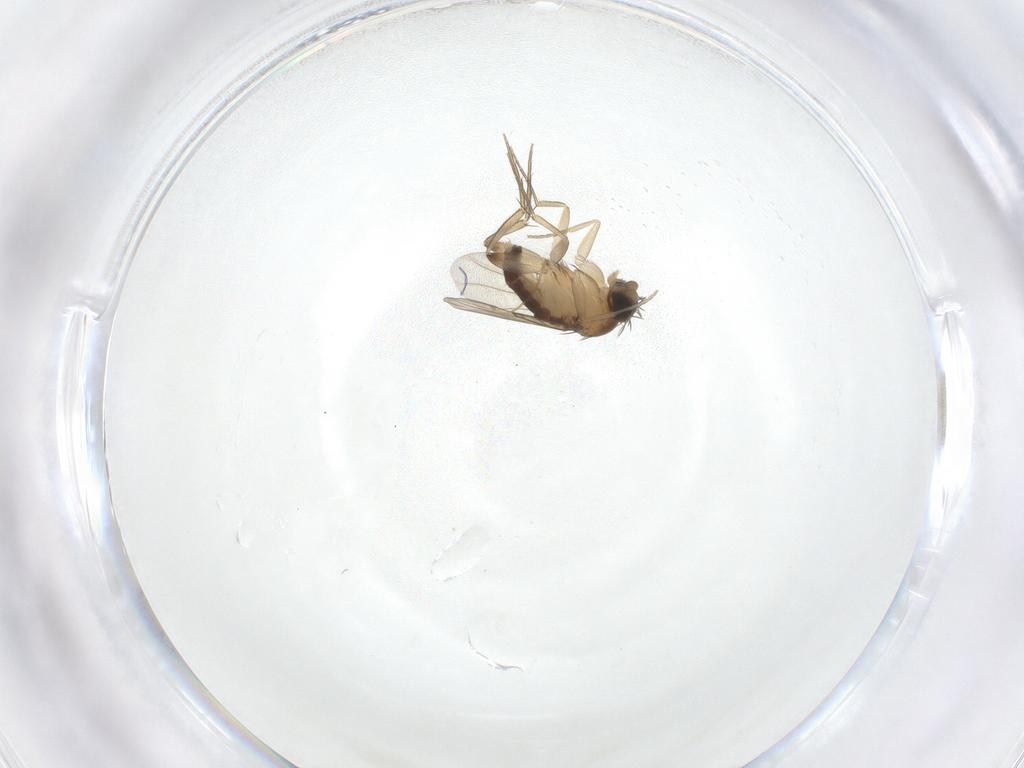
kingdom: Animalia
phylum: Arthropoda
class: Insecta
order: Diptera
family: Phoridae
